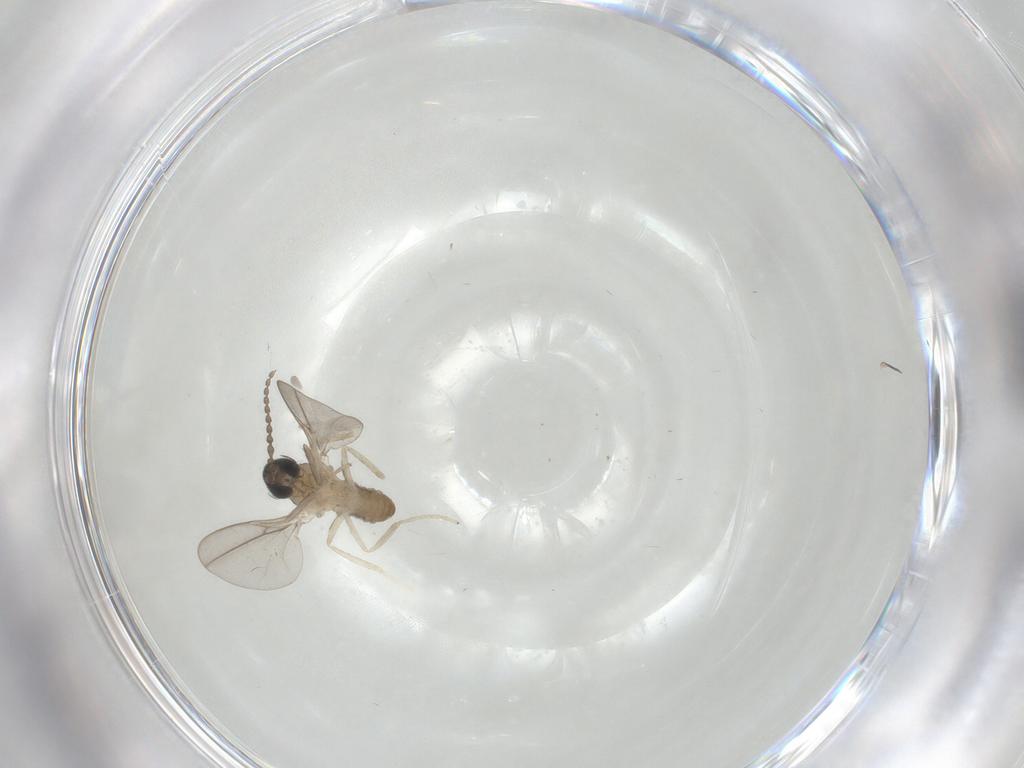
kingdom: Animalia
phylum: Arthropoda
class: Insecta
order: Diptera
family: Cecidomyiidae
